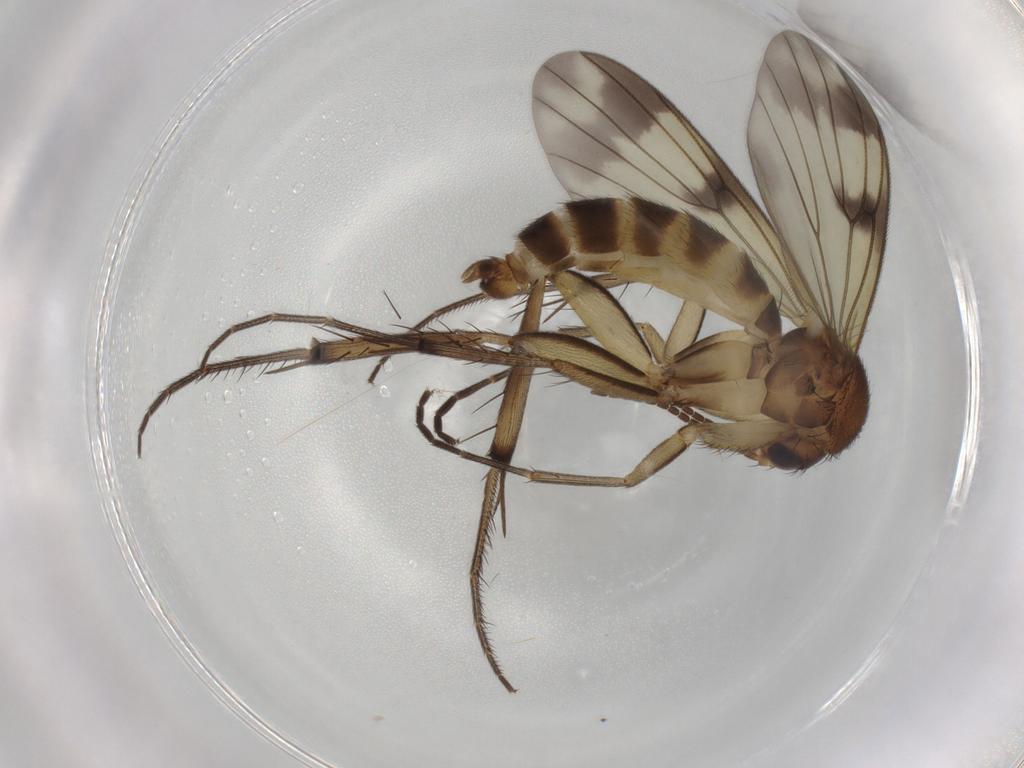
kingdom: Animalia
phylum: Arthropoda
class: Insecta
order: Diptera
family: Mycetophilidae
